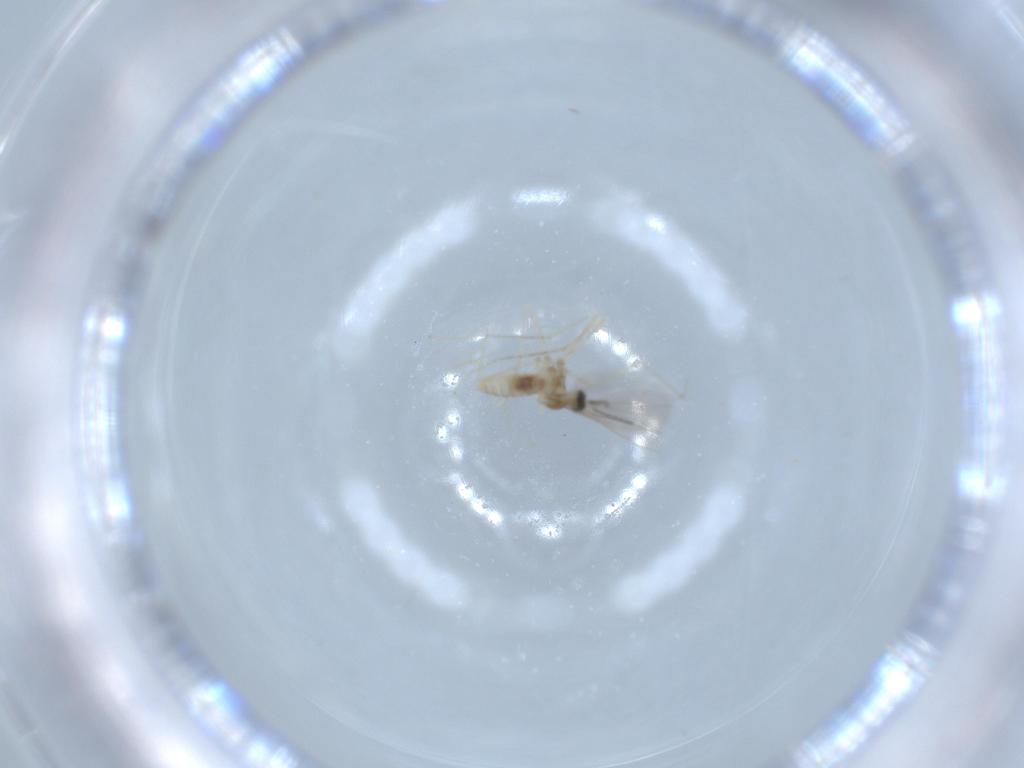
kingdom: Animalia
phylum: Arthropoda
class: Insecta
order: Diptera
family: Cecidomyiidae
